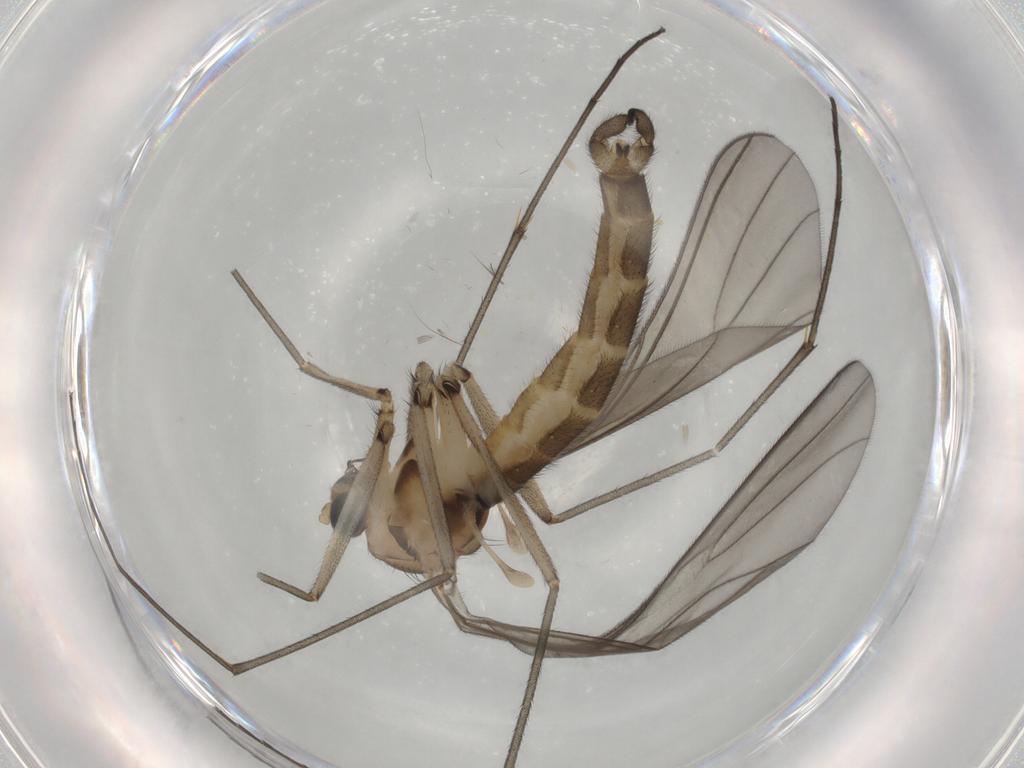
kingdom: Animalia
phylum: Arthropoda
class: Insecta
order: Diptera
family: Sciaridae
